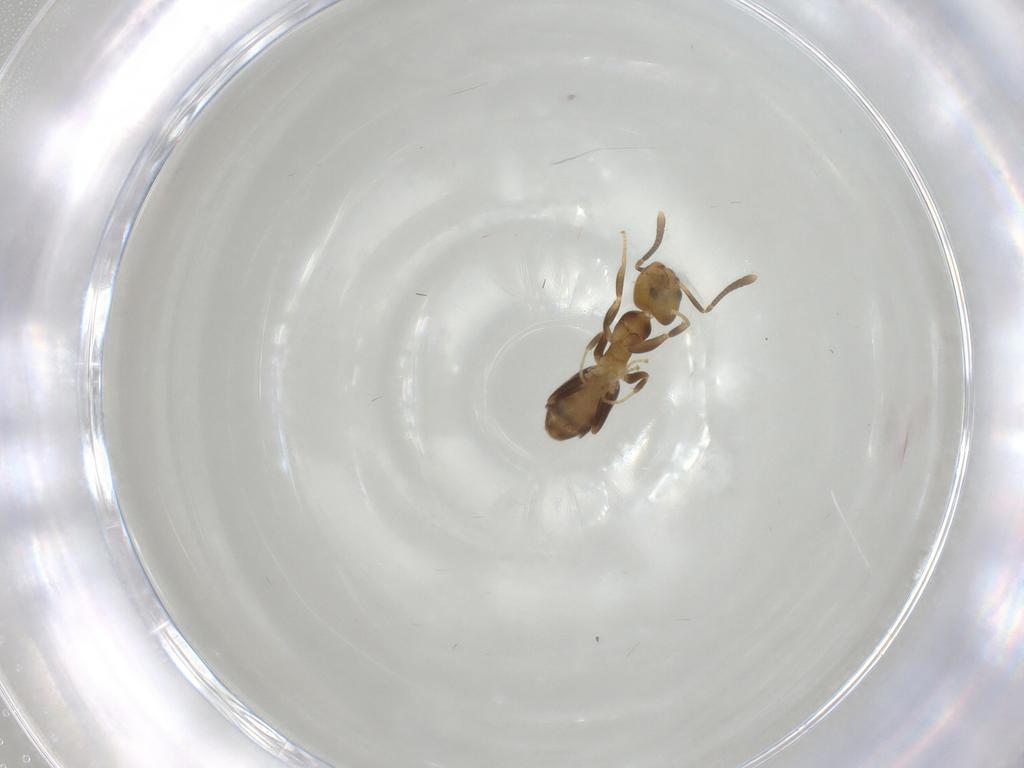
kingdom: Animalia
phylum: Arthropoda
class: Insecta
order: Hymenoptera
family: Formicidae
